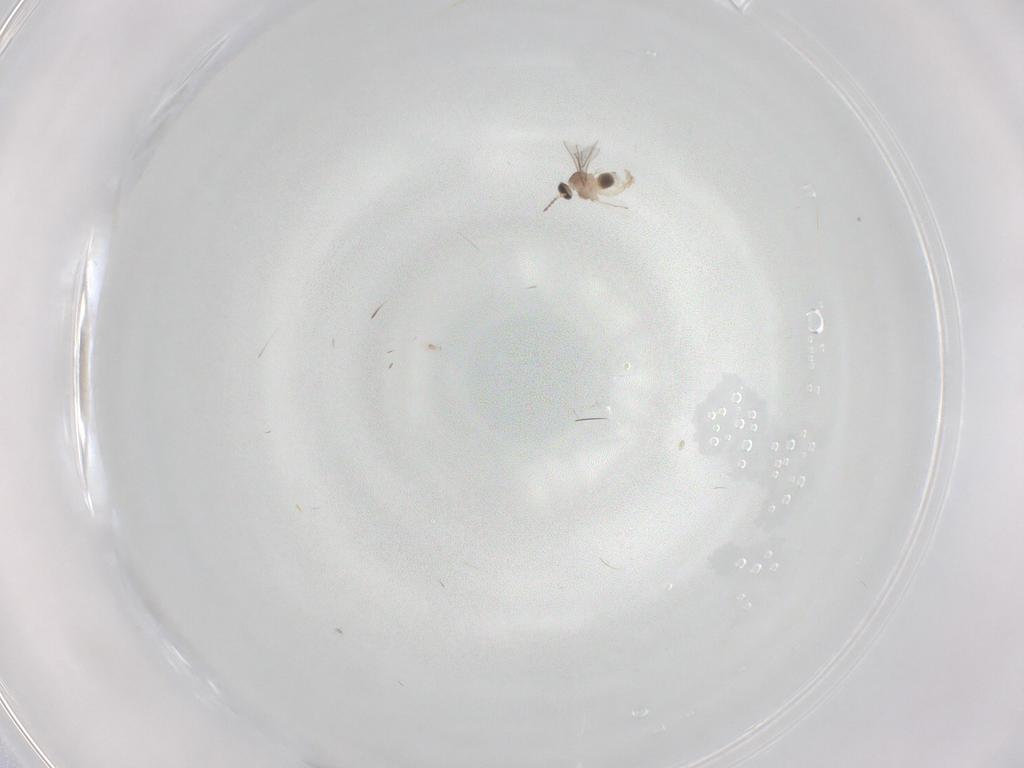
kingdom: Animalia
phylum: Arthropoda
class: Insecta
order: Diptera
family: Cecidomyiidae
